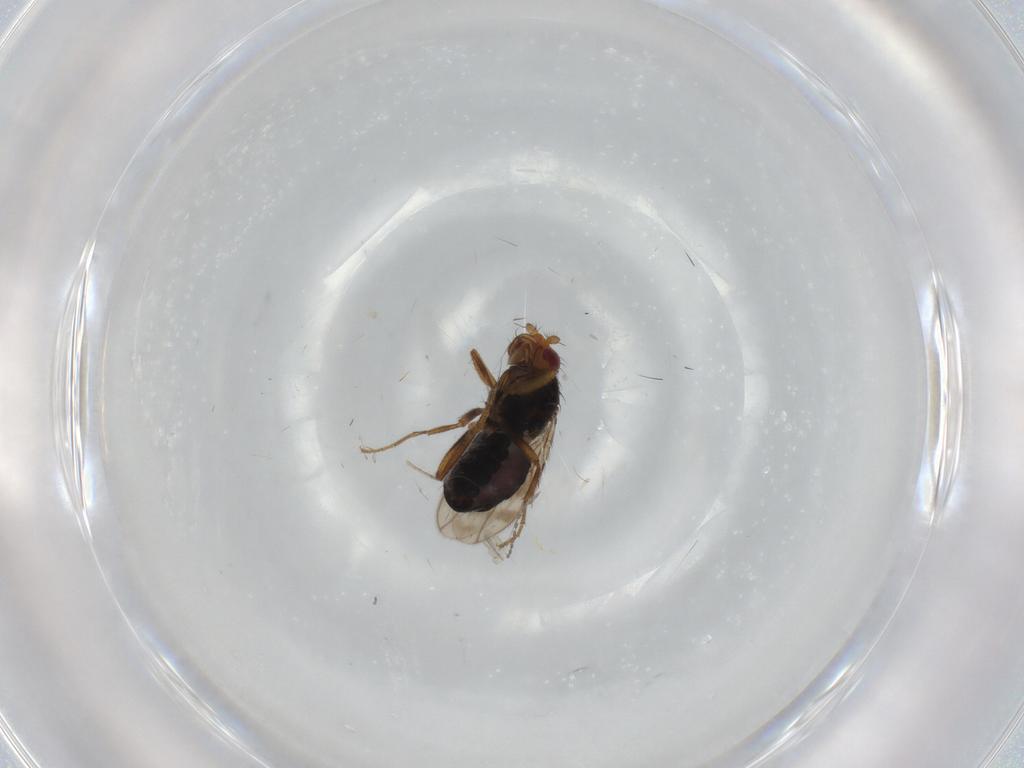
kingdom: Animalia
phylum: Arthropoda
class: Insecta
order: Diptera
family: Sphaeroceridae
